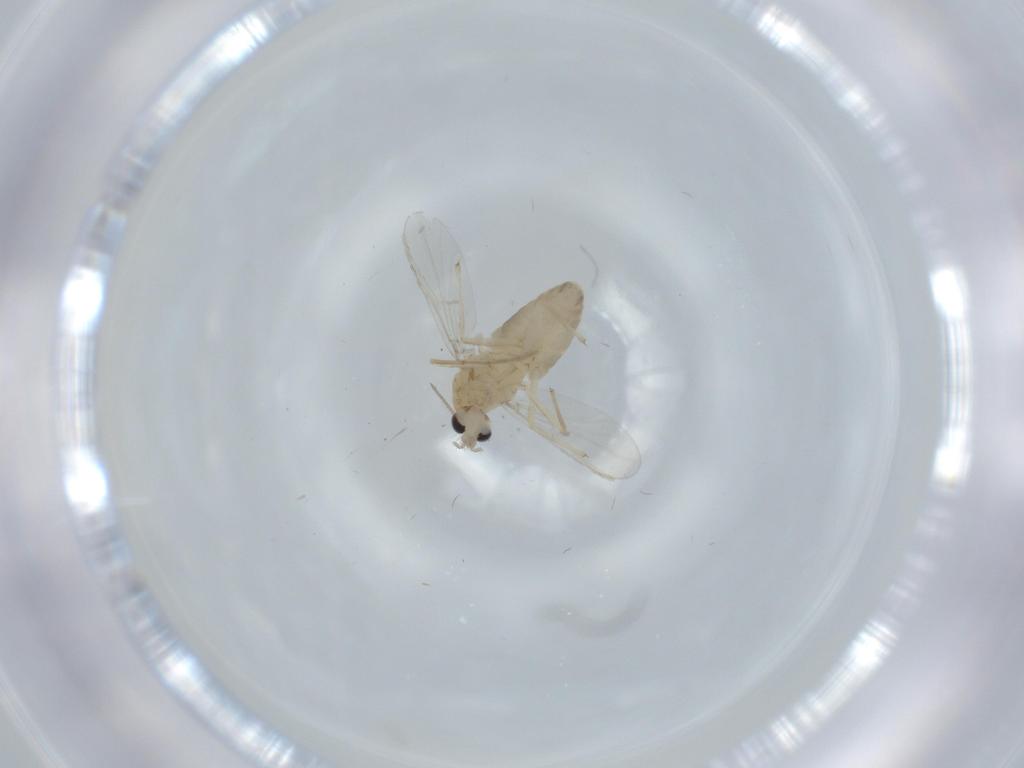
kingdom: Animalia
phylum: Arthropoda
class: Insecta
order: Diptera
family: Chironomidae
